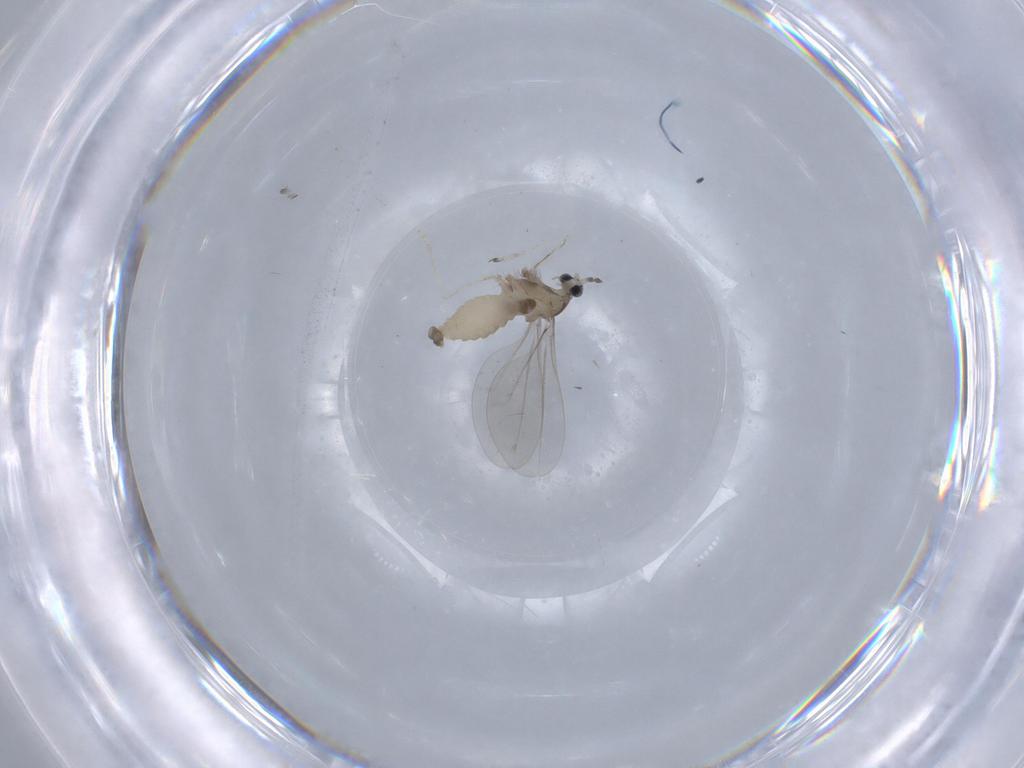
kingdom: Animalia
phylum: Arthropoda
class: Insecta
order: Diptera
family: Cecidomyiidae
